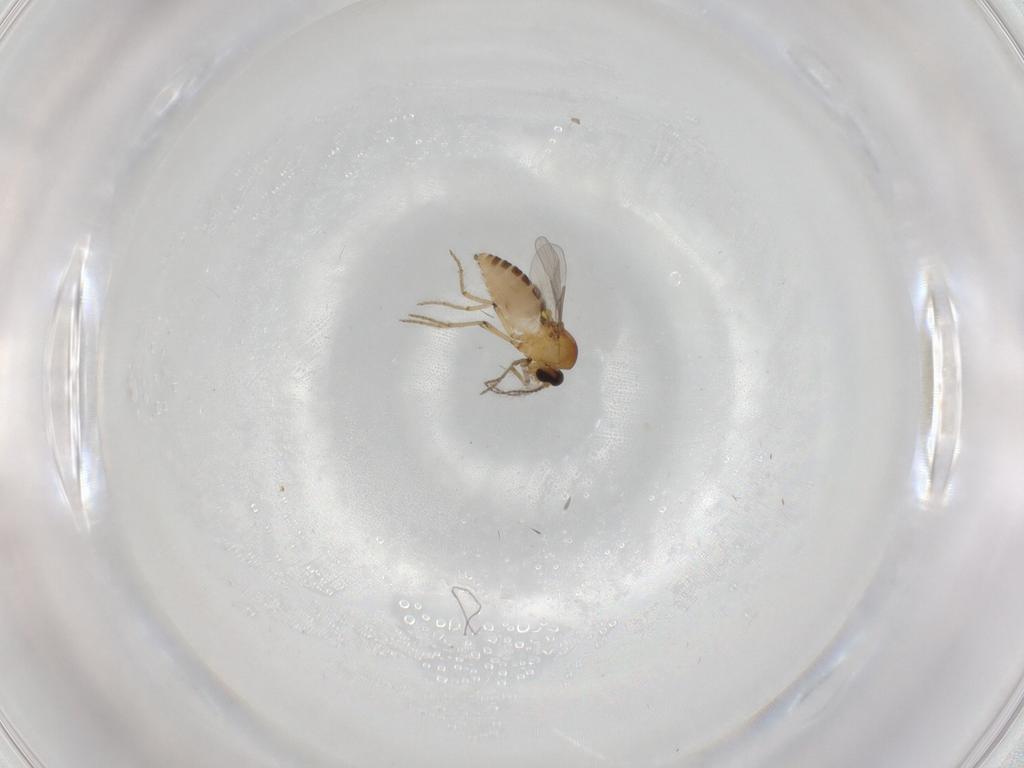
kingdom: Animalia
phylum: Arthropoda
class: Insecta
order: Diptera
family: Ceratopogonidae
